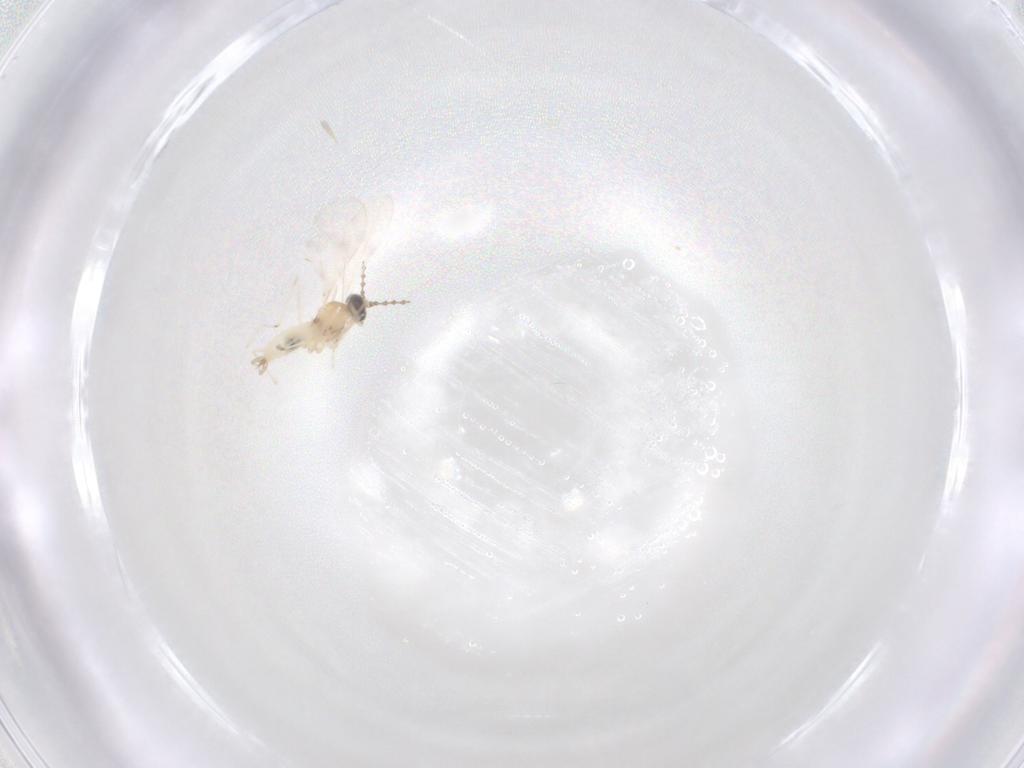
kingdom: Animalia
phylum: Arthropoda
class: Insecta
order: Diptera
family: Cecidomyiidae
